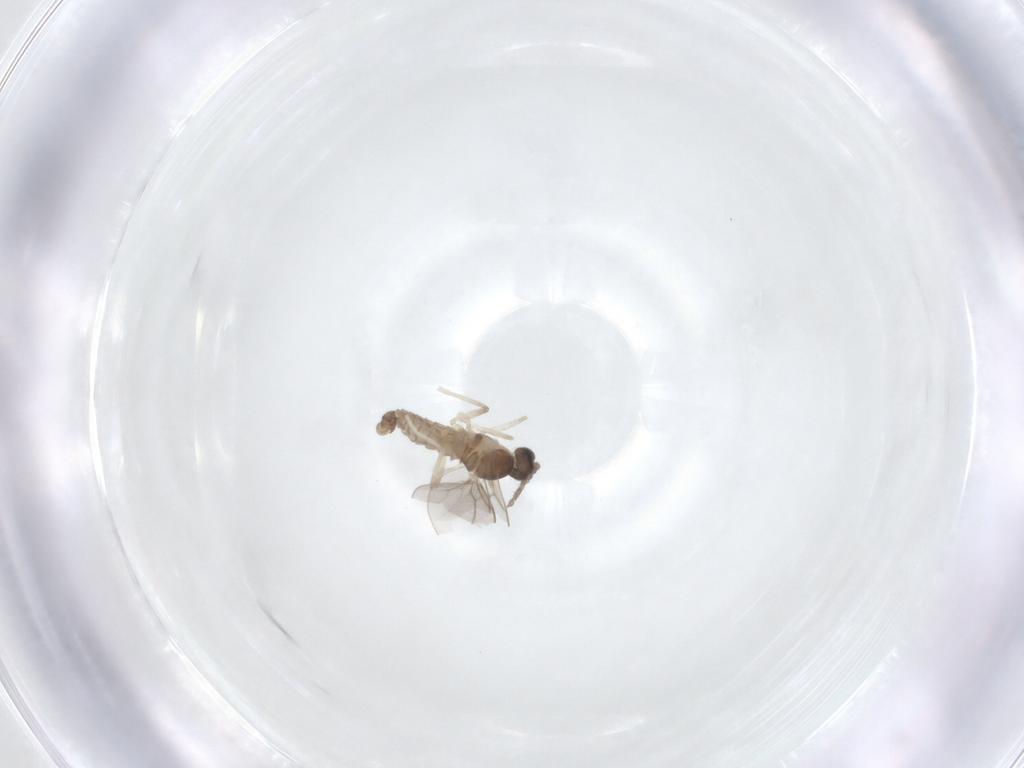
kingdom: Animalia
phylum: Arthropoda
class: Insecta
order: Diptera
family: Cecidomyiidae
